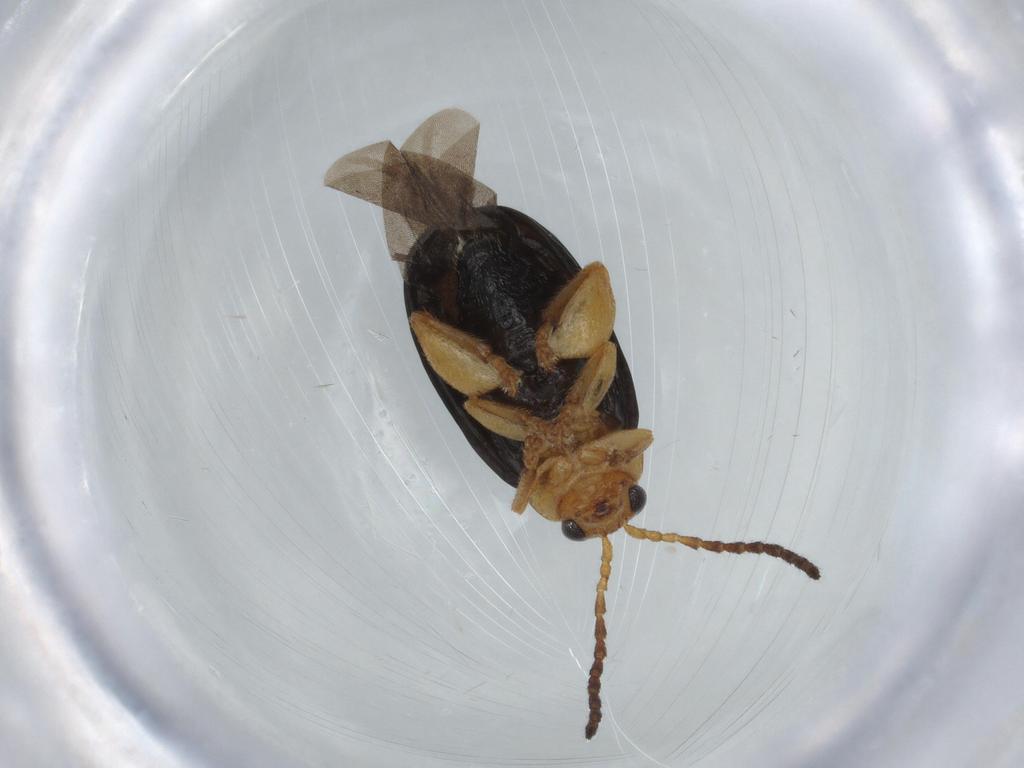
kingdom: Animalia
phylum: Arthropoda
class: Insecta
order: Coleoptera
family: Chrysomelidae
